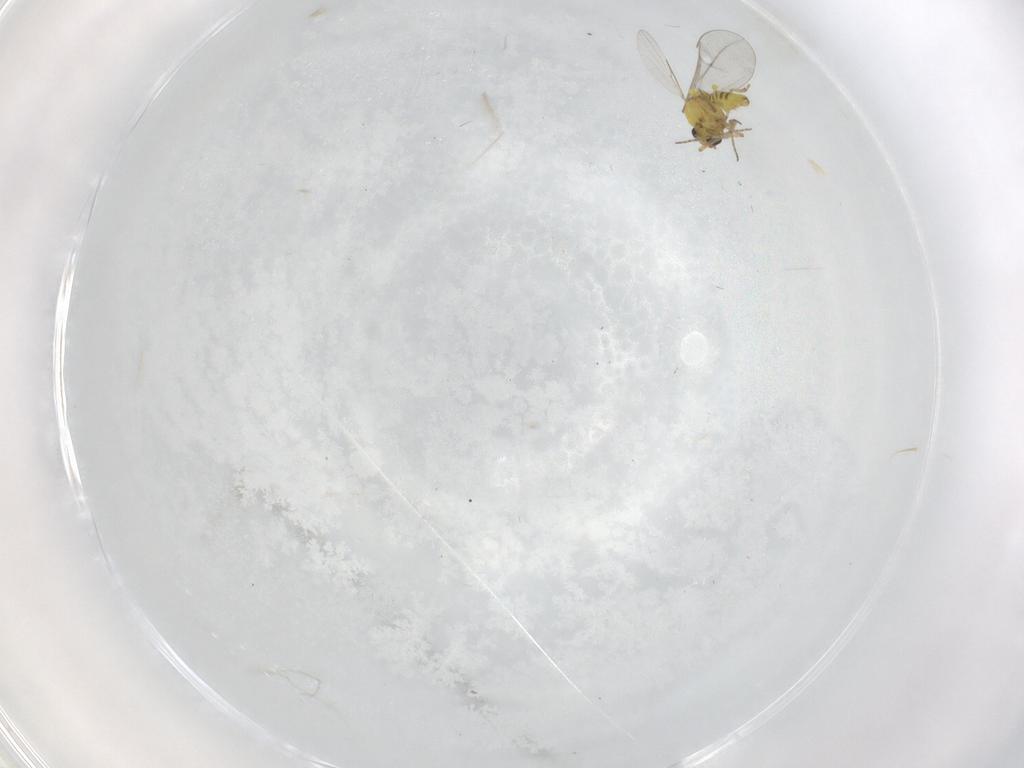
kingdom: Animalia
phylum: Arthropoda
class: Insecta
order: Diptera
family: Ceratopogonidae
